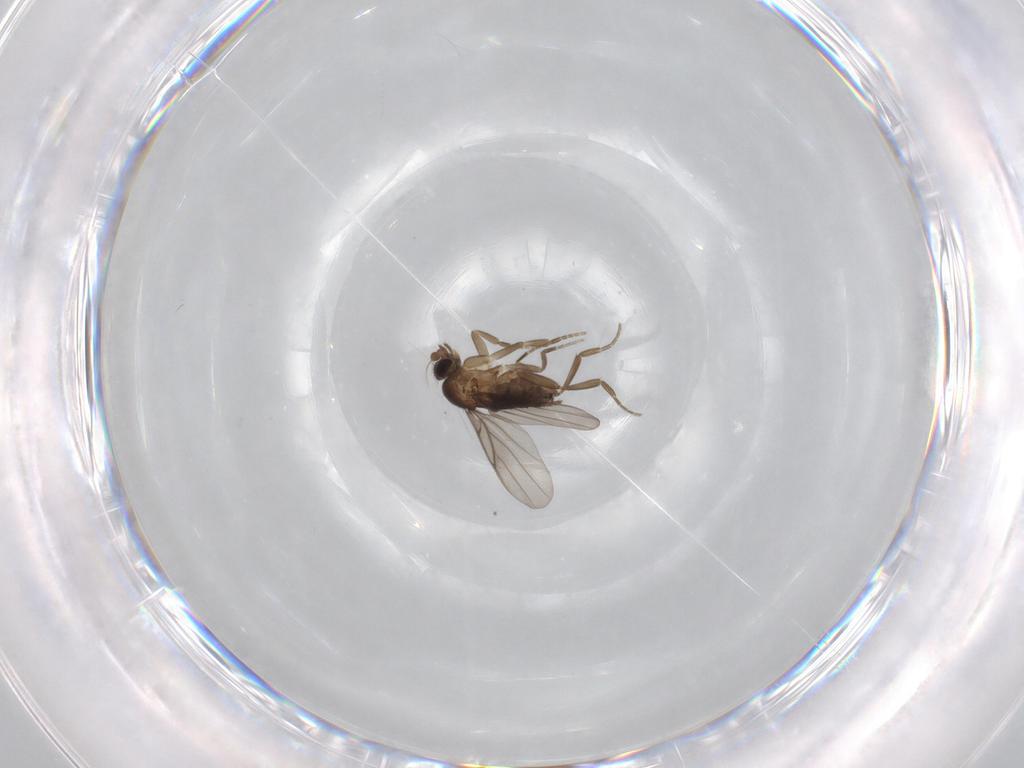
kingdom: Animalia
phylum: Arthropoda
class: Insecta
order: Diptera
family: Phoridae
